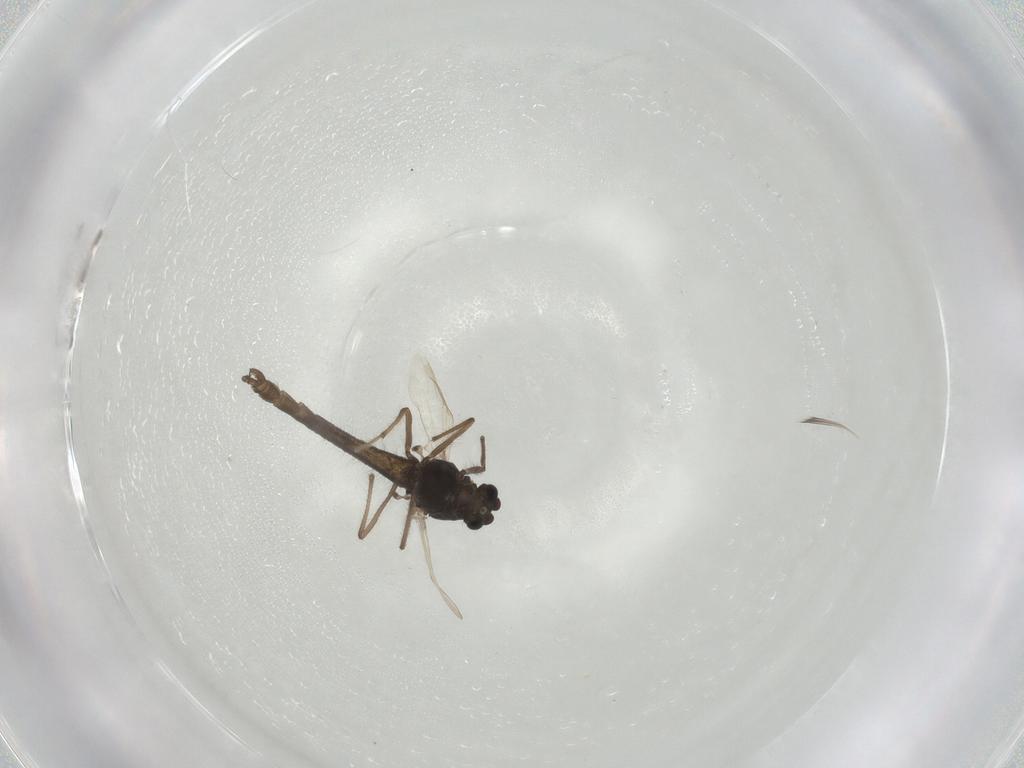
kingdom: Animalia
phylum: Arthropoda
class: Insecta
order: Diptera
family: Chironomidae
